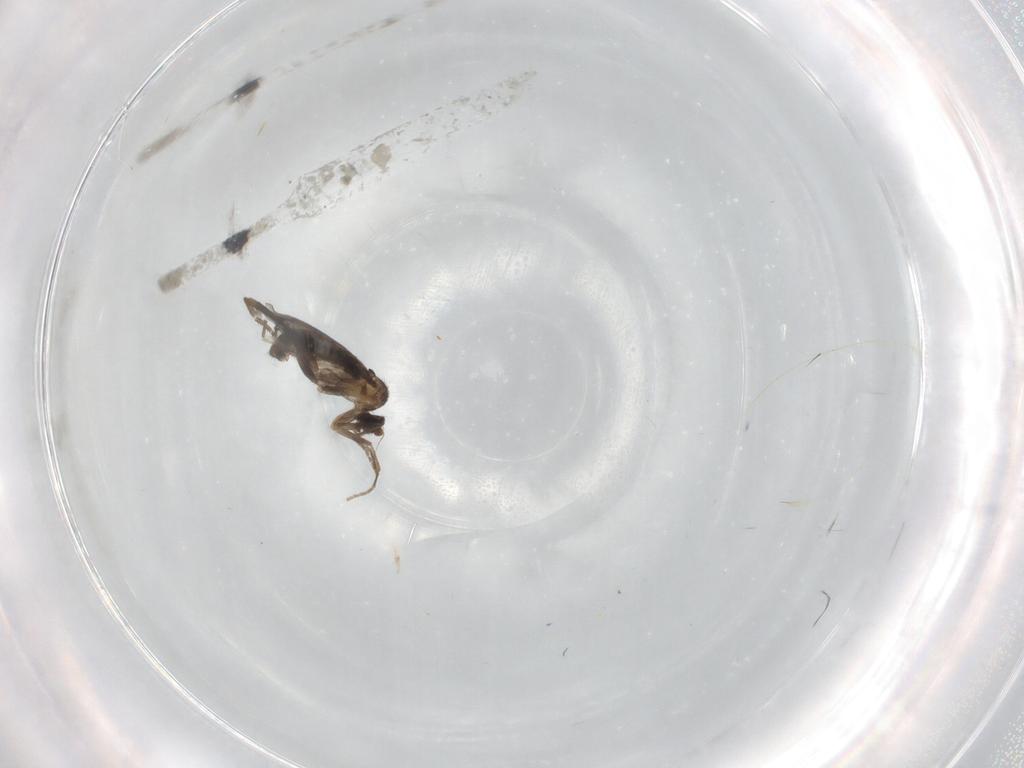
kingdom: Animalia
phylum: Arthropoda
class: Insecta
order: Diptera
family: Phoridae
